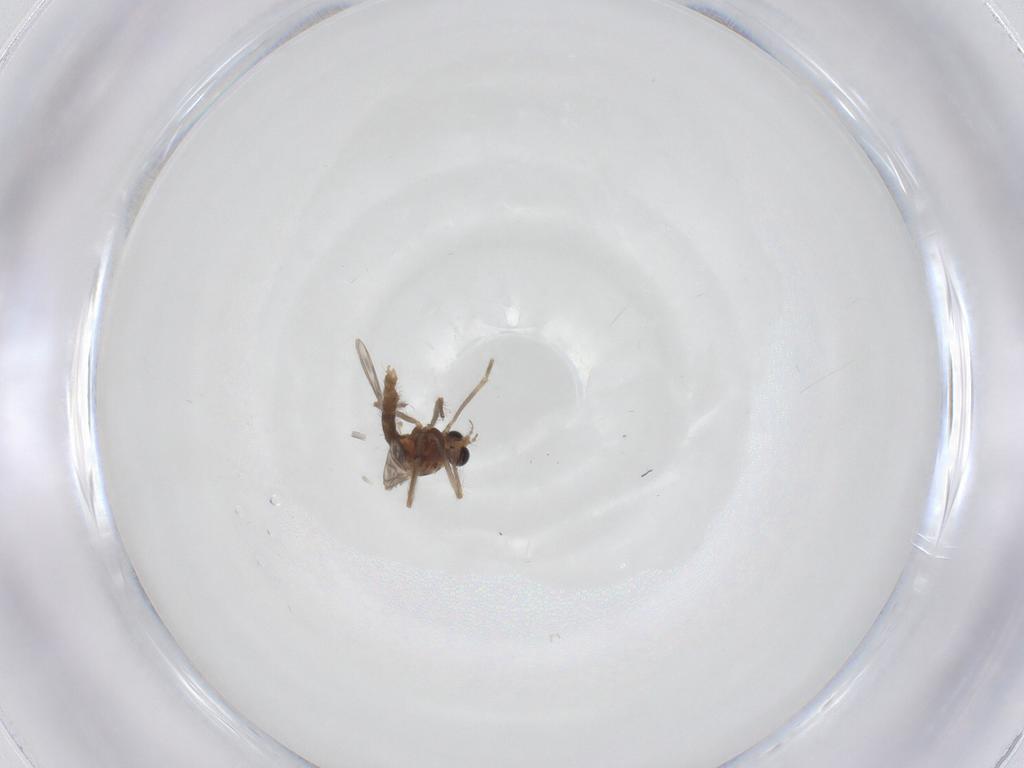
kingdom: Animalia
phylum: Arthropoda
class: Insecta
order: Diptera
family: Chironomidae
